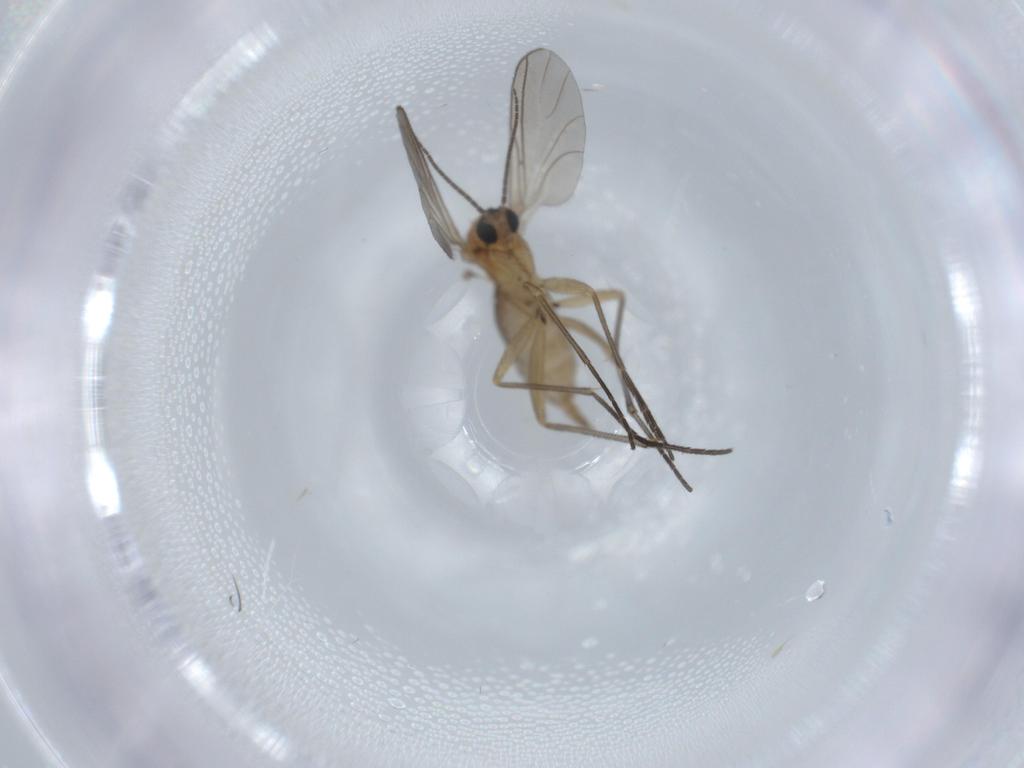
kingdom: Animalia
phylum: Arthropoda
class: Insecta
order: Diptera
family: Sciaridae
